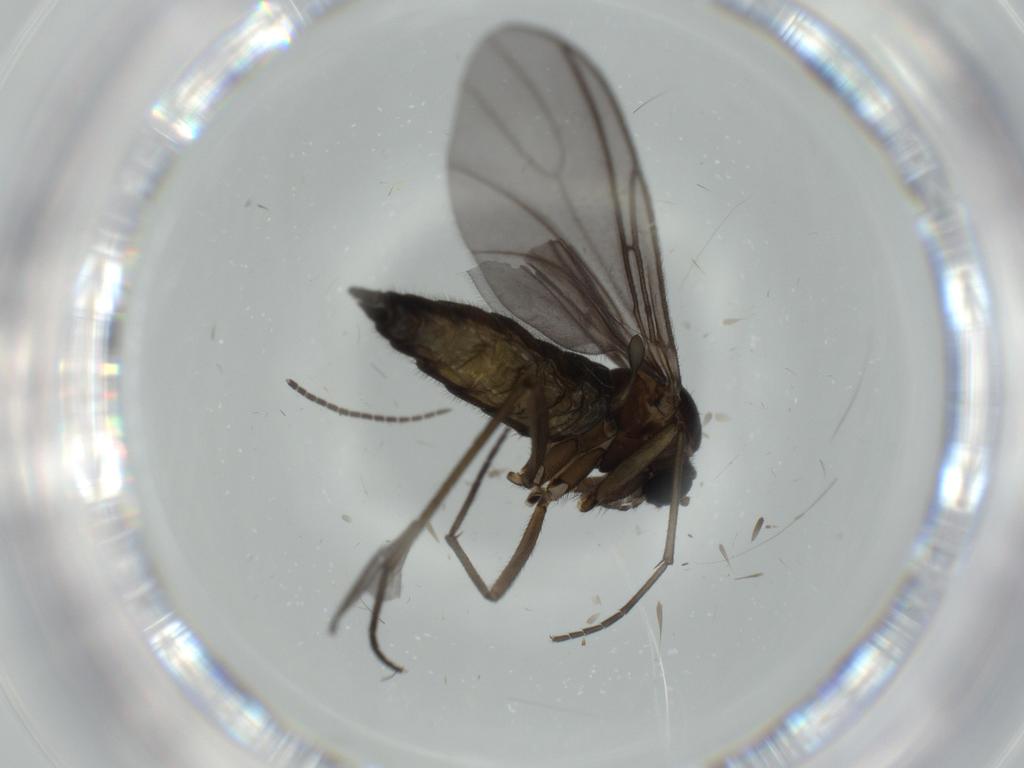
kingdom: Animalia
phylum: Arthropoda
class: Insecta
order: Diptera
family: Sciaridae
